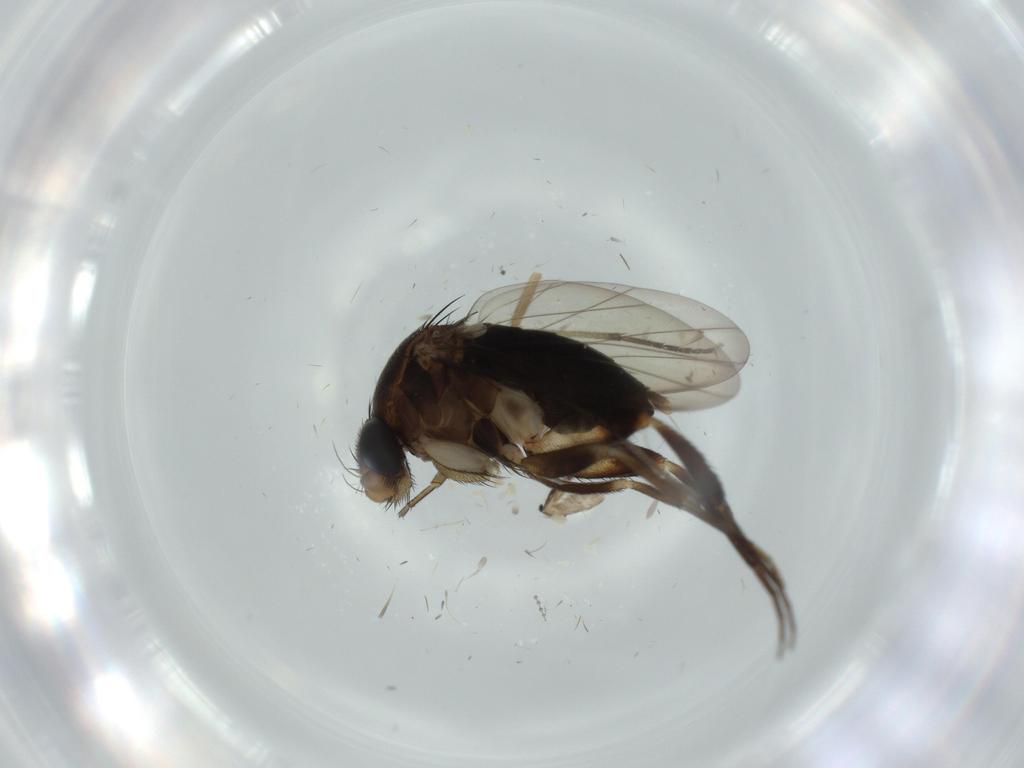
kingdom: Animalia
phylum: Arthropoda
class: Insecta
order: Diptera
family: Phoridae
